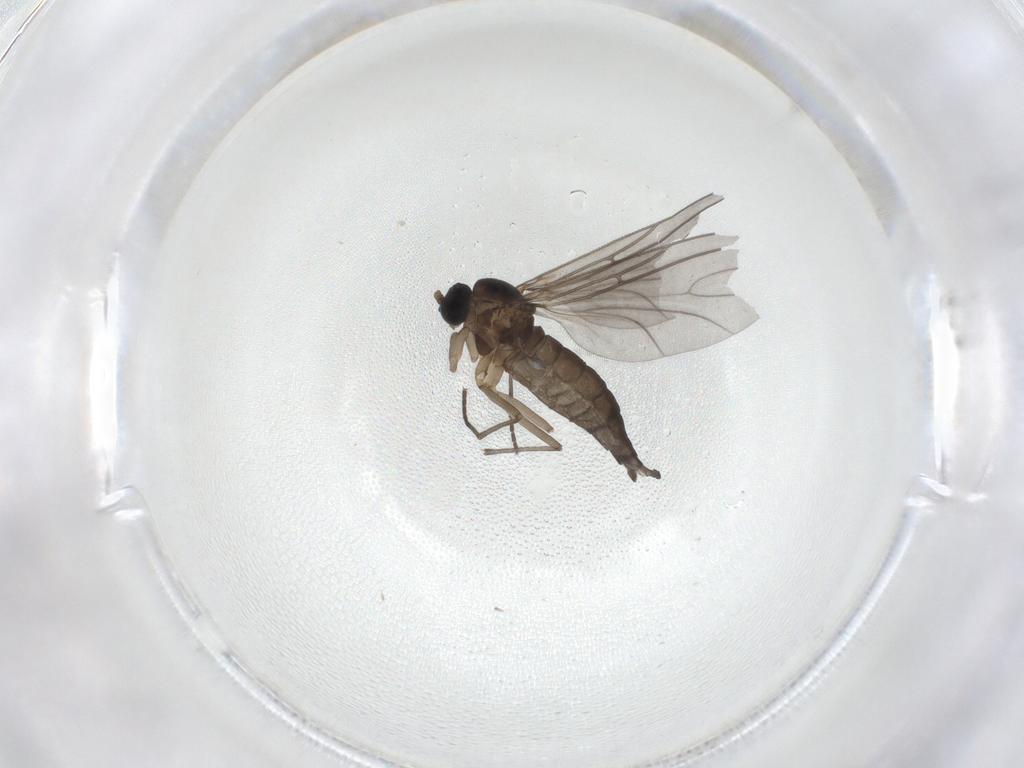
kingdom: Animalia
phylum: Arthropoda
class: Insecta
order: Diptera
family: Sciaridae
